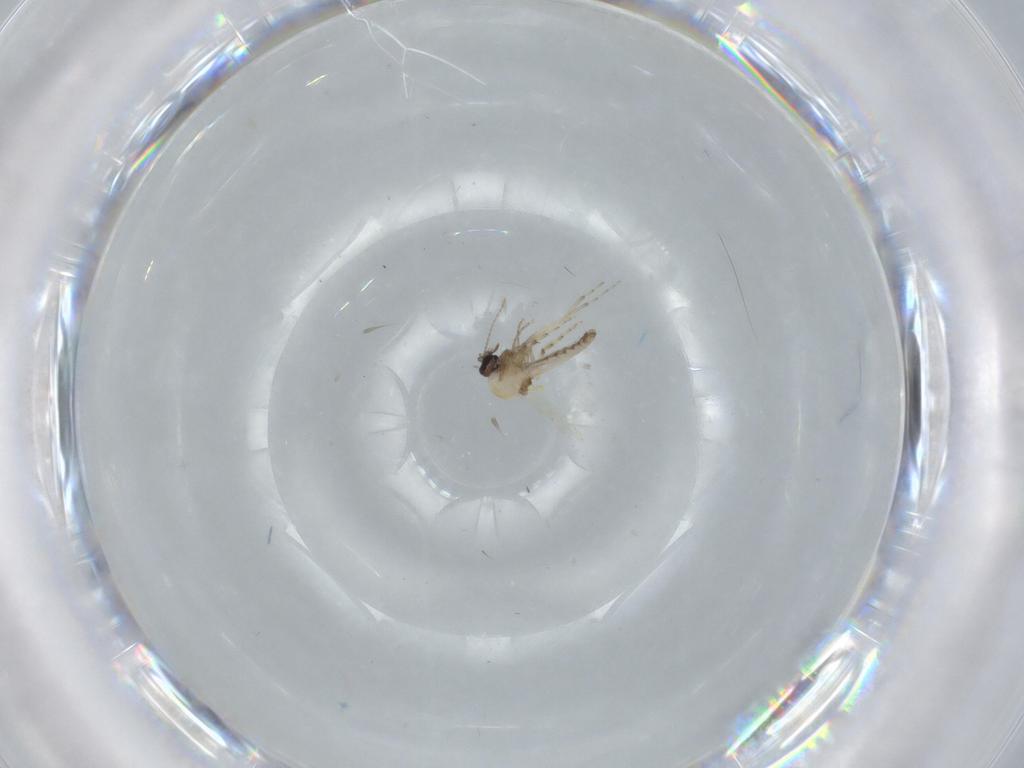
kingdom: Animalia
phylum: Arthropoda
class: Insecta
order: Diptera
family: Ceratopogonidae
